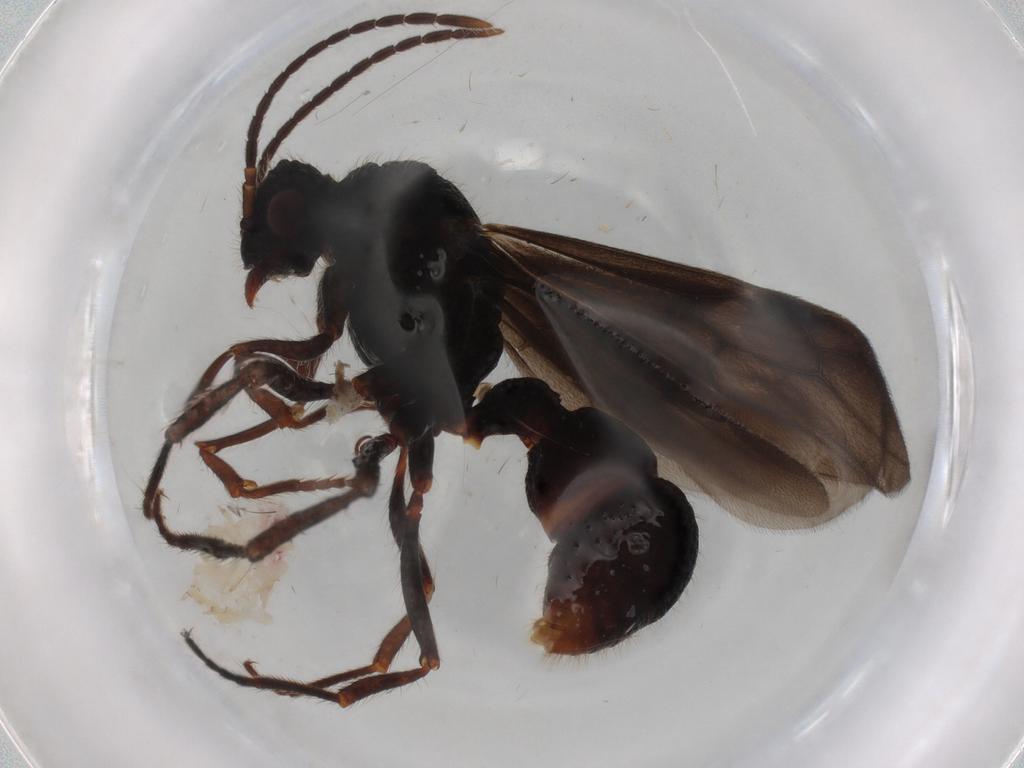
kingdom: Animalia
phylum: Arthropoda
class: Insecta
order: Hymenoptera
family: Formicidae
